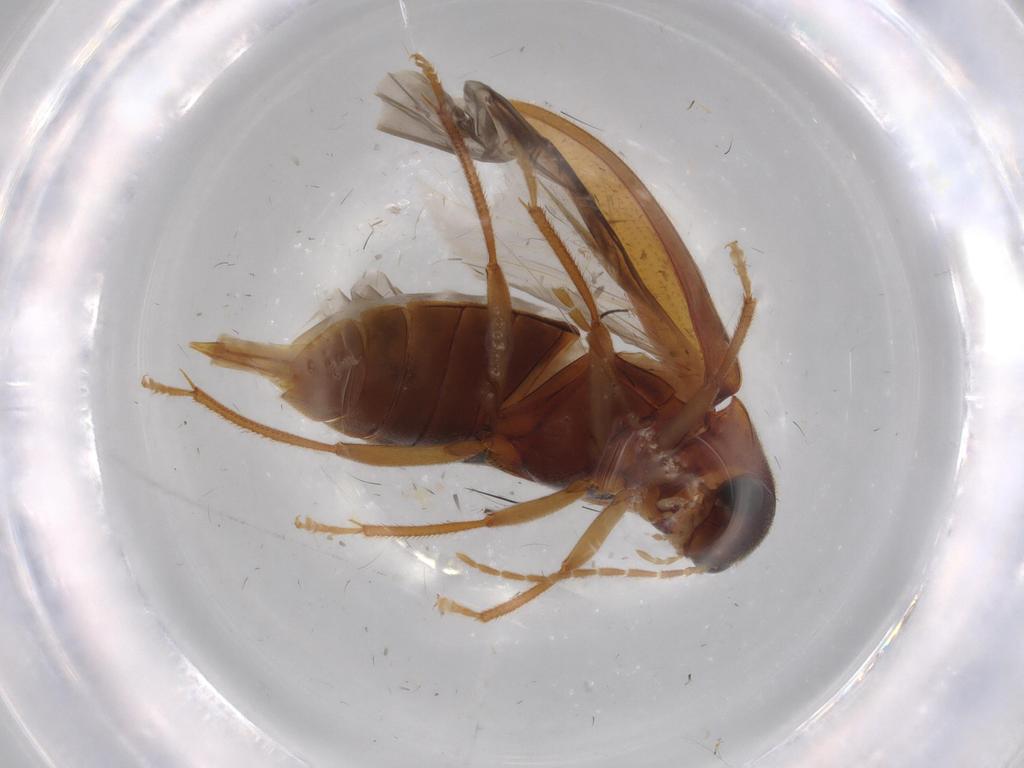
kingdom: Animalia
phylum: Arthropoda
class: Insecta
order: Coleoptera
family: Ptilodactylidae
